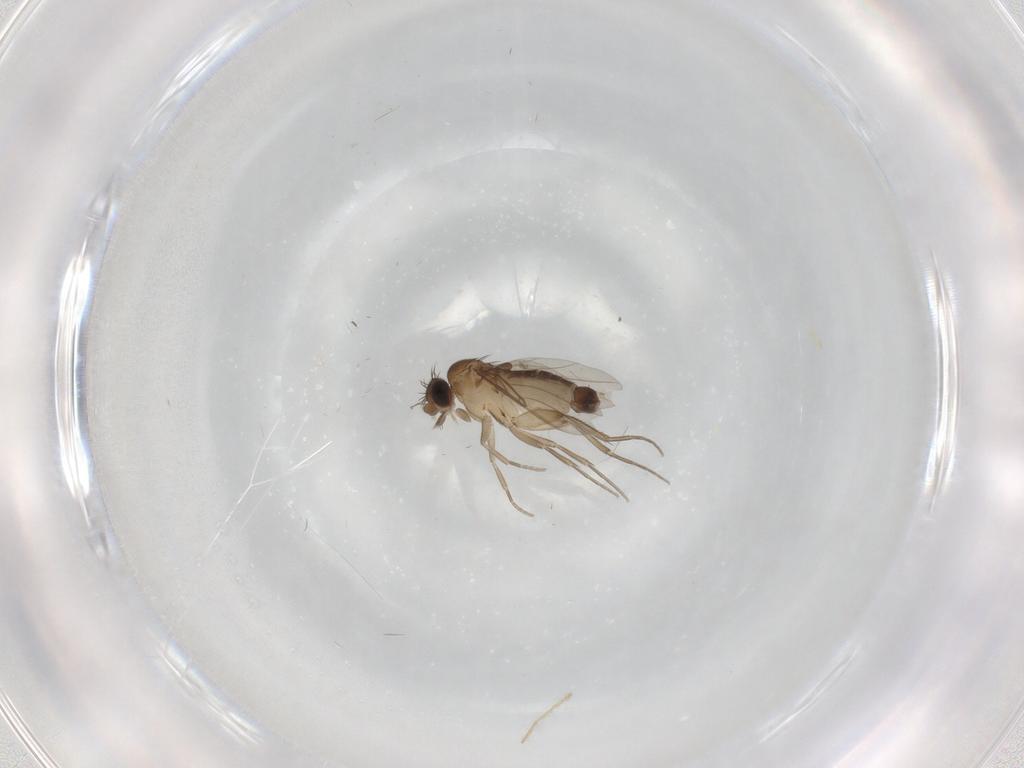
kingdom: Animalia
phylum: Arthropoda
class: Insecta
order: Diptera
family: Phoridae
